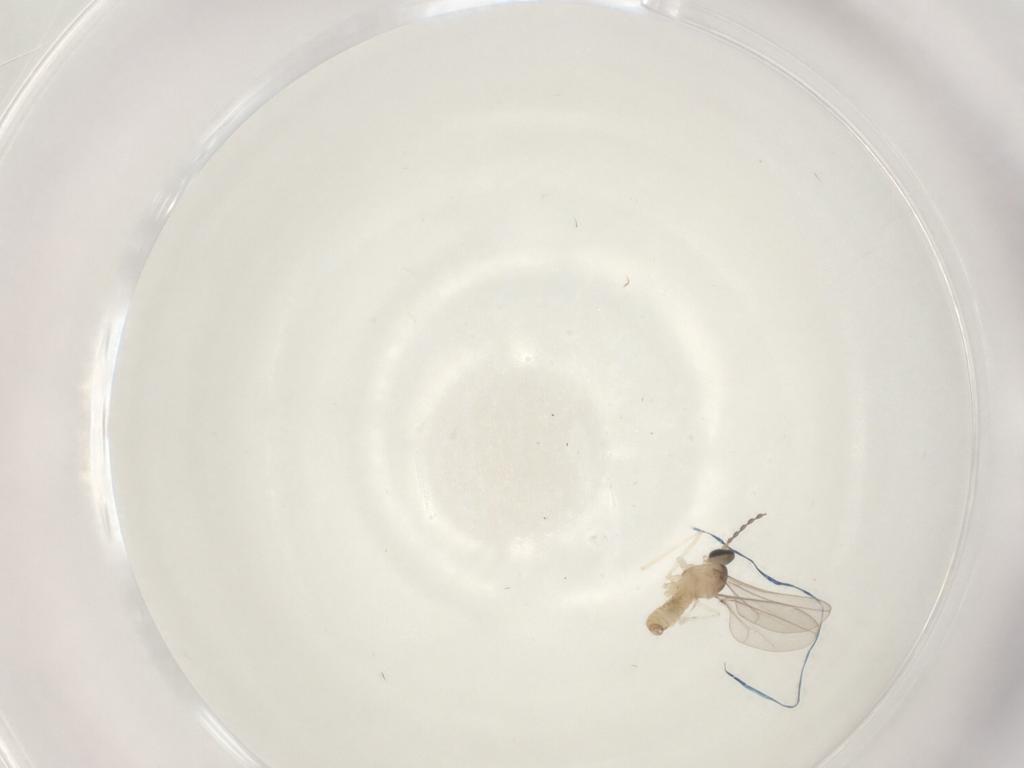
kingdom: Animalia
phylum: Arthropoda
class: Insecta
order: Diptera
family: Cecidomyiidae
